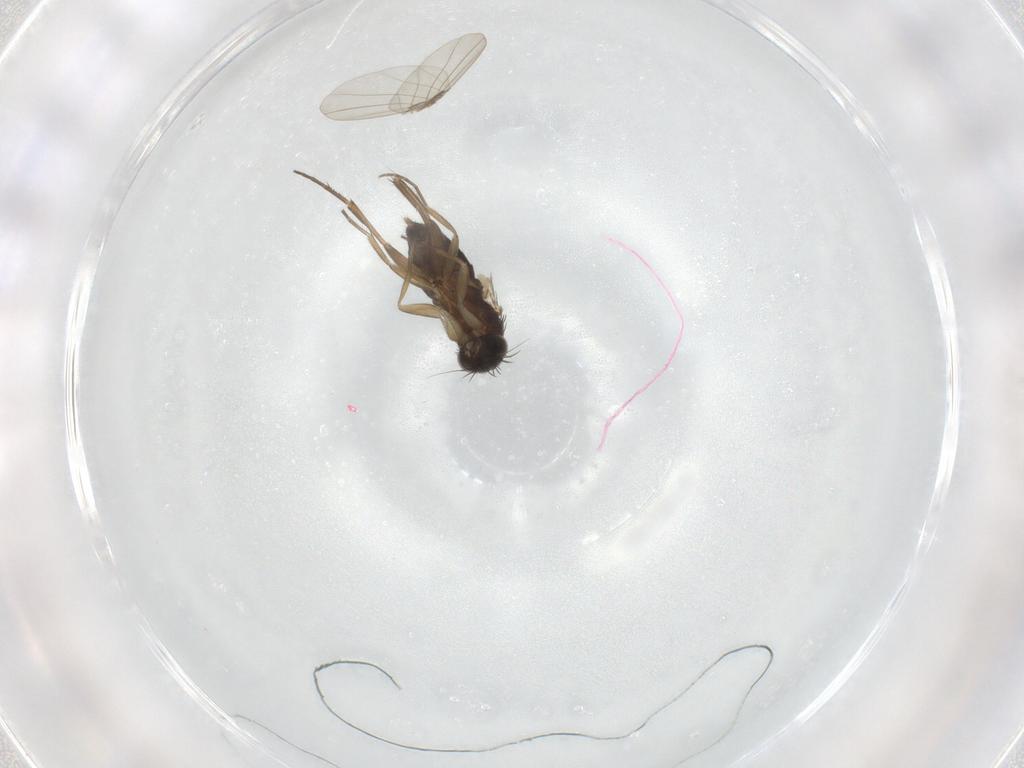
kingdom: Animalia
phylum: Arthropoda
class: Insecta
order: Diptera
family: Phoridae
